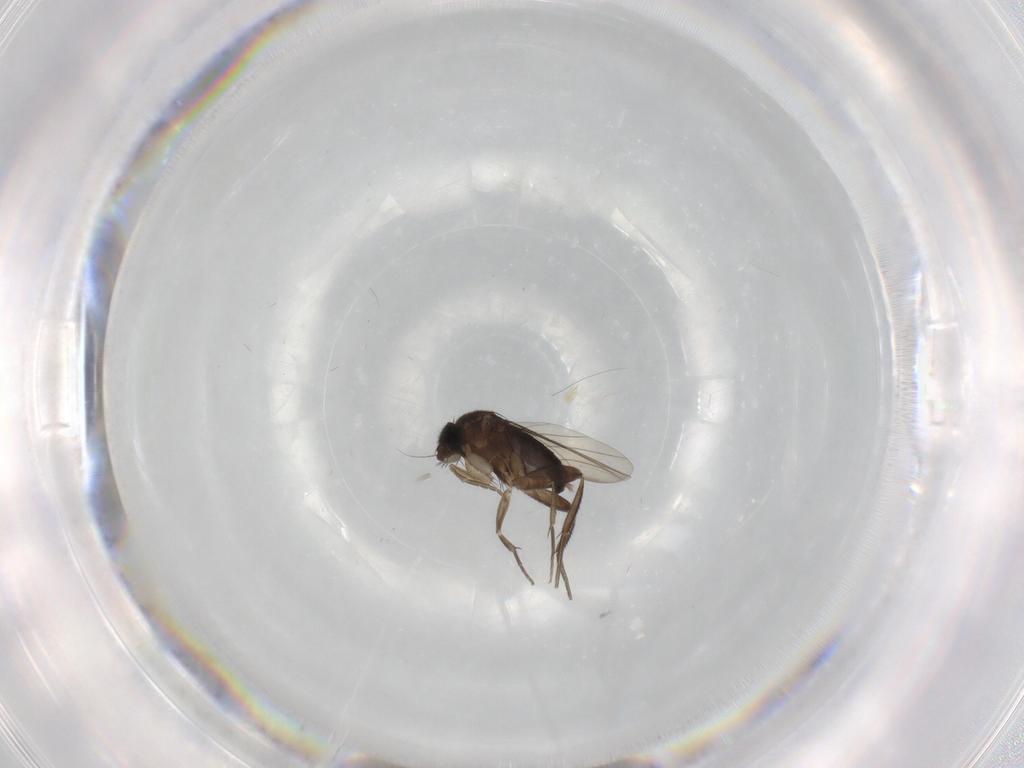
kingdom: Animalia
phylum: Arthropoda
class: Insecta
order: Diptera
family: Phoridae
